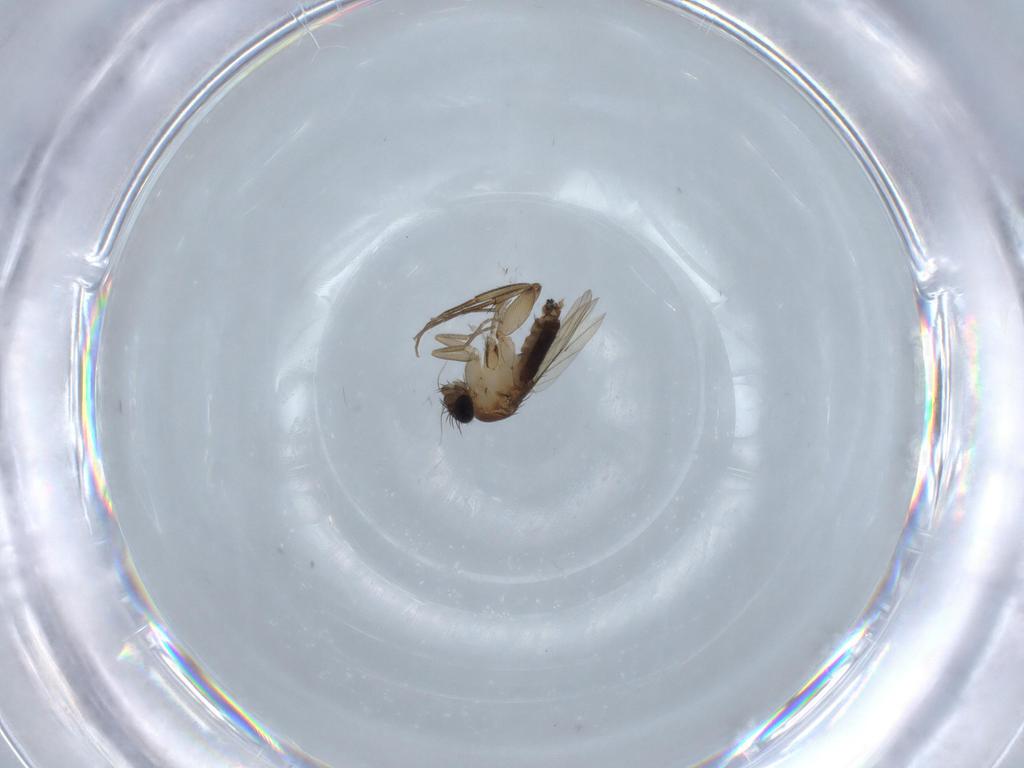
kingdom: Animalia
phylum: Arthropoda
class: Insecta
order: Diptera
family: Phoridae
